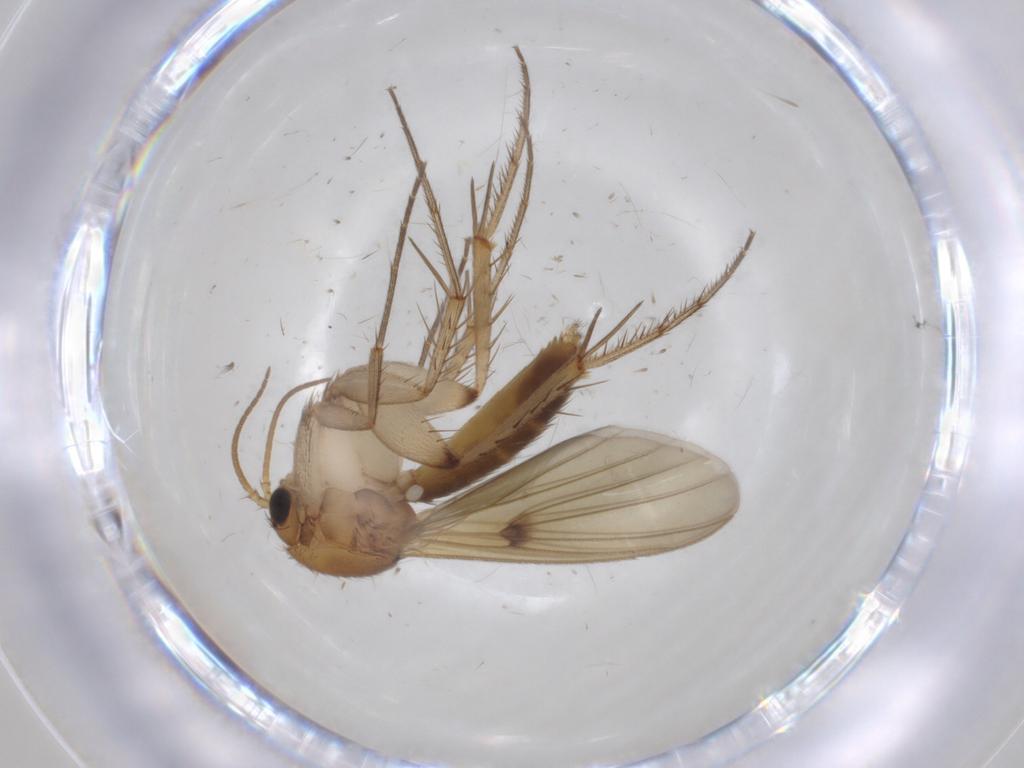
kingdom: Animalia
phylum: Arthropoda
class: Insecta
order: Diptera
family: Mycetophilidae
